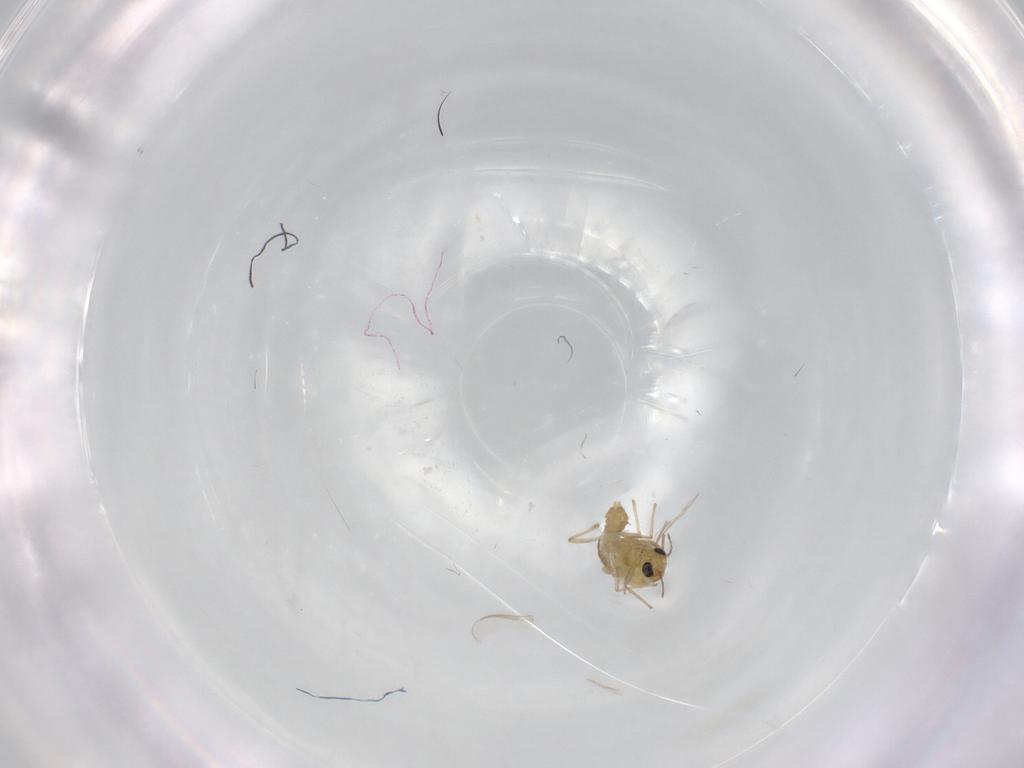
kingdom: Animalia
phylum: Arthropoda
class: Insecta
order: Diptera
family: Chironomidae
